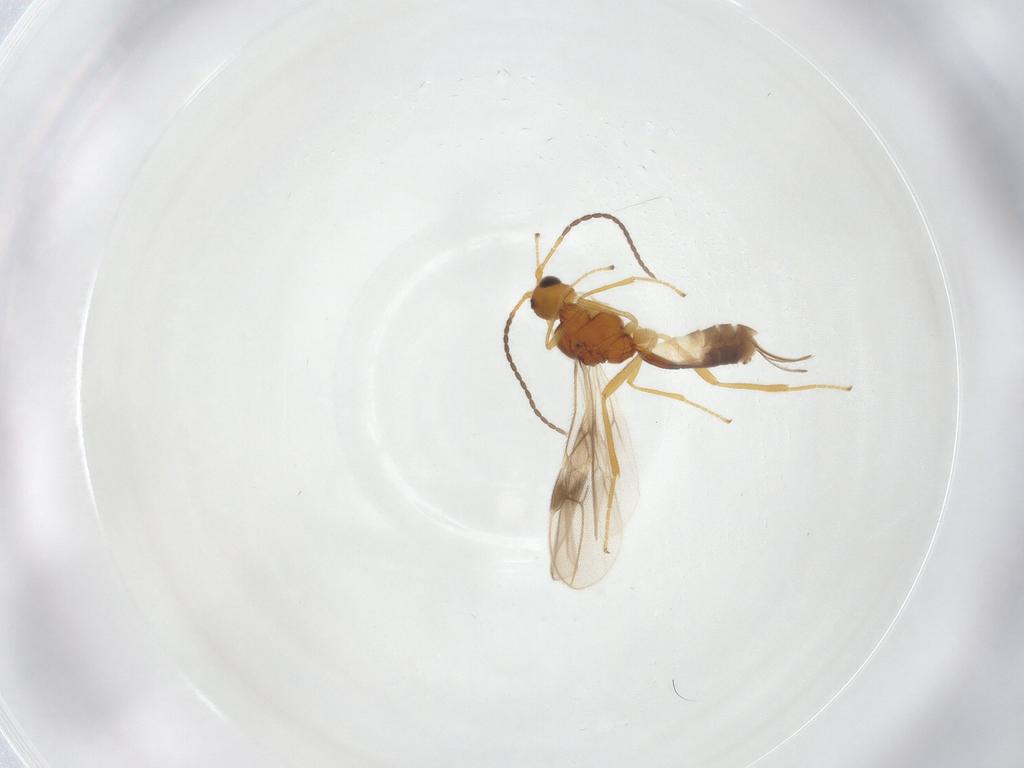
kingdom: Animalia
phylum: Arthropoda
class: Insecta
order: Hymenoptera
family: Braconidae
